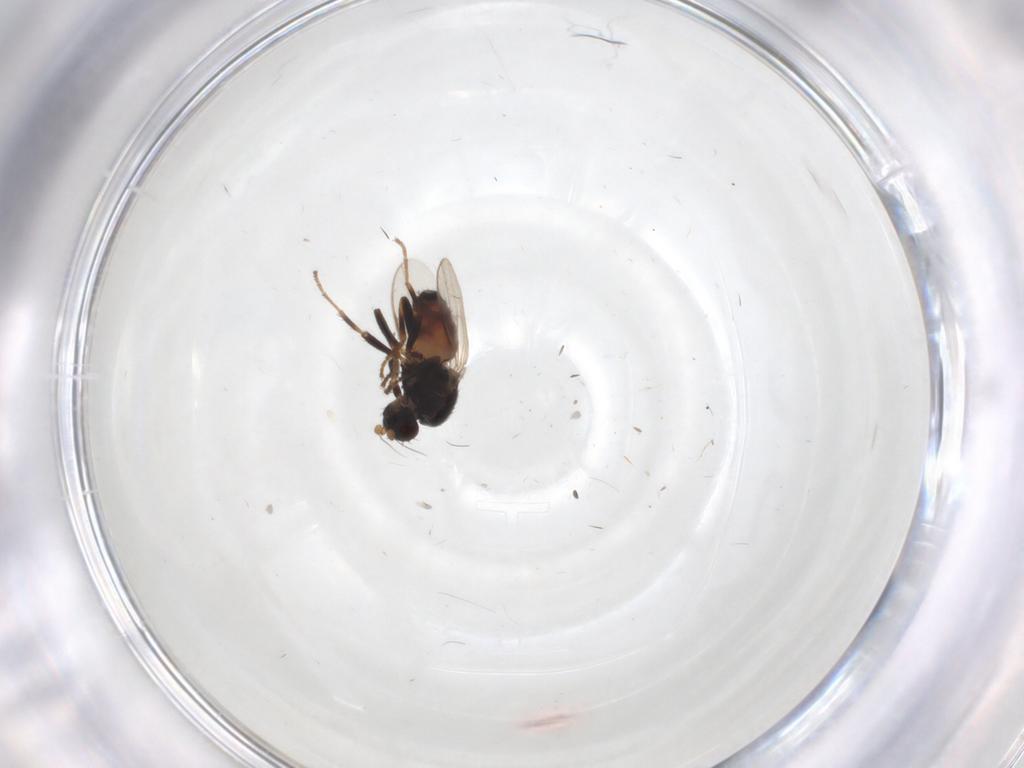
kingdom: Animalia
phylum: Arthropoda
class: Insecta
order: Diptera
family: Sphaeroceridae
